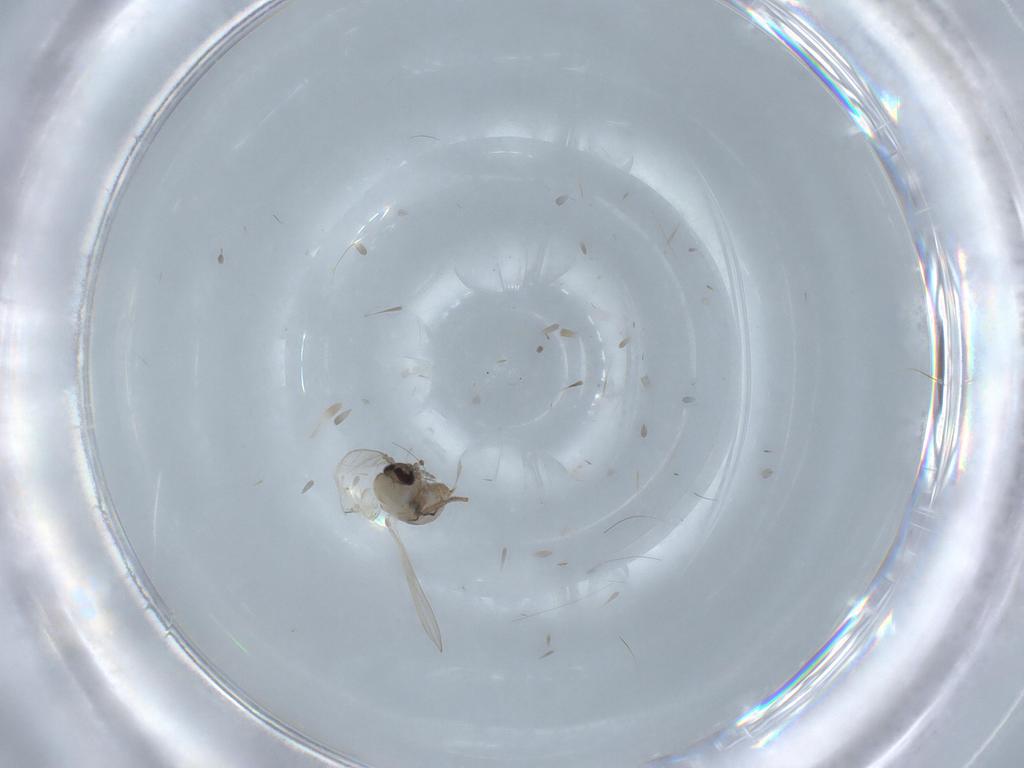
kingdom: Animalia
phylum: Arthropoda
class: Insecta
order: Diptera
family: Psychodidae
